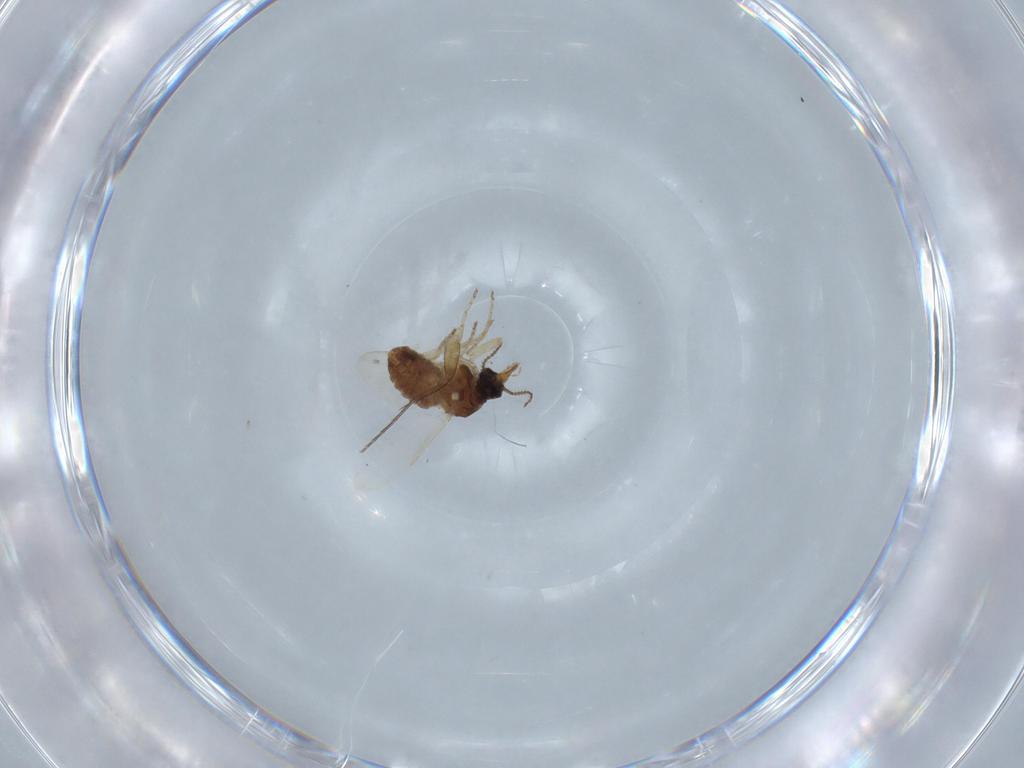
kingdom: Animalia
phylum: Arthropoda
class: Insecta
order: Diptera
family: Ceratopogonidae
